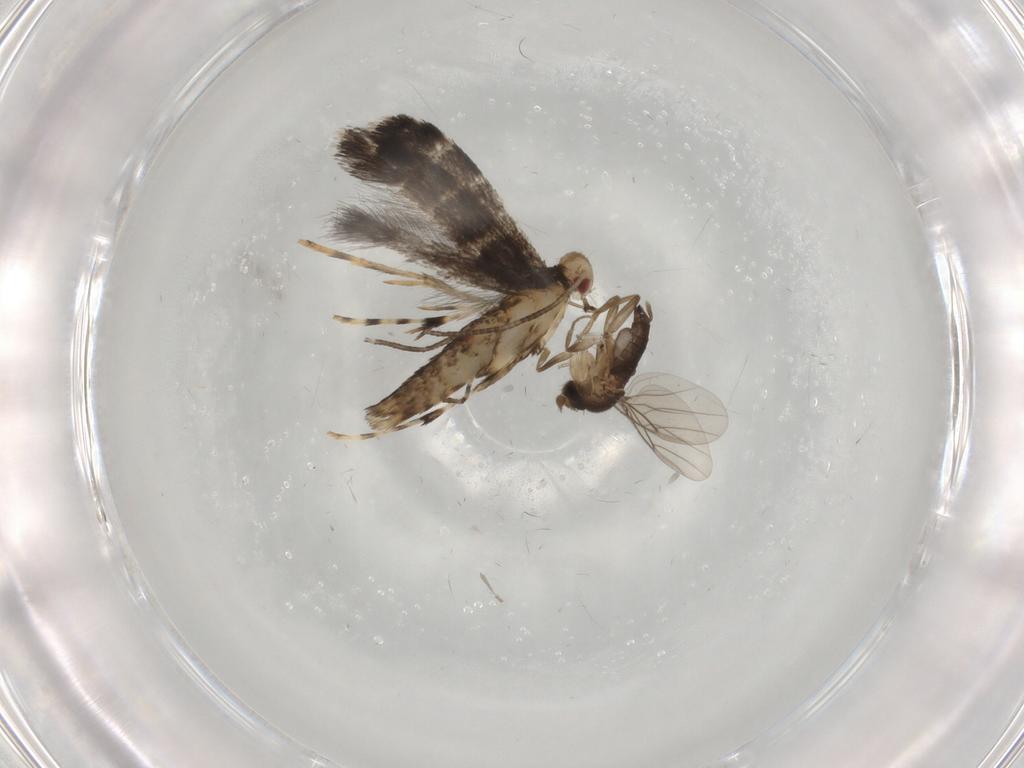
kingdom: Animalia
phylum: Arthropoda
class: Insecta
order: Lepidoptera
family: Gracillariidae
